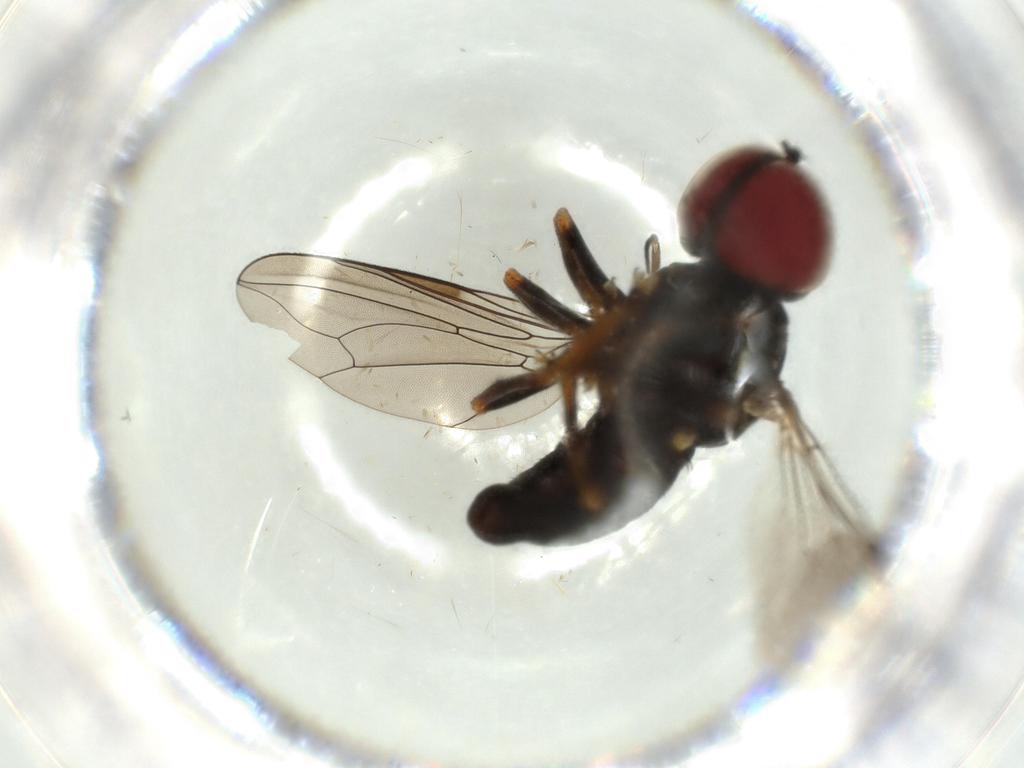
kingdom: Animalia
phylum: Arthropoda
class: Insecta
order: Diptera
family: Pipunculidae
